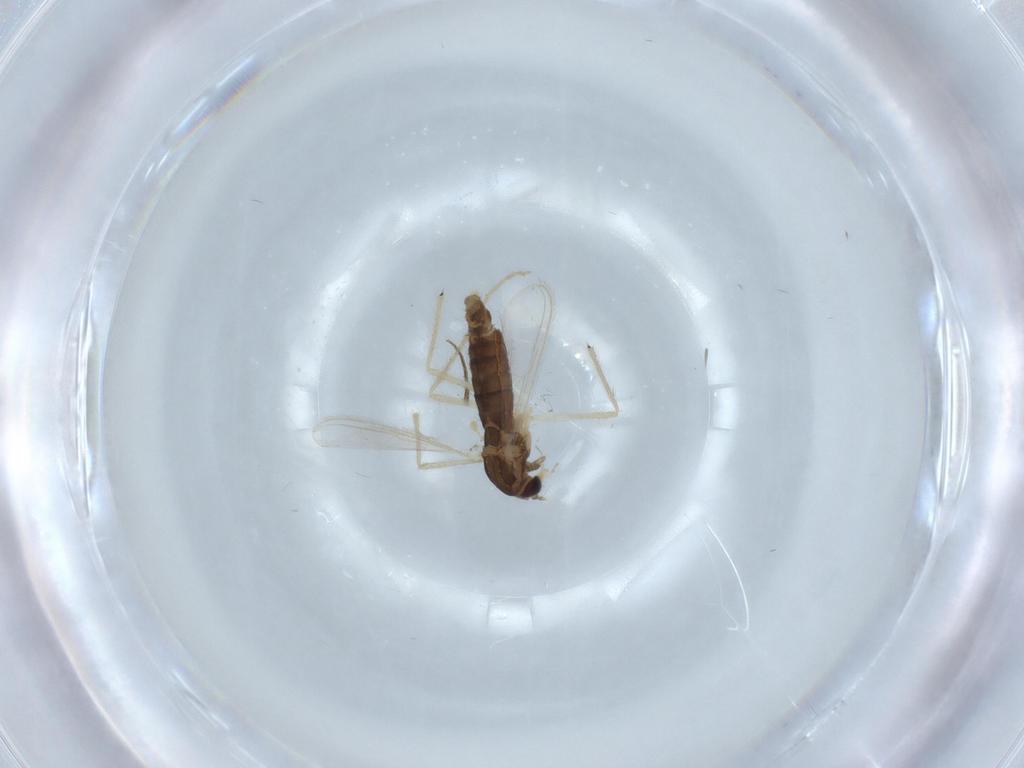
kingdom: Animalia
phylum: Arthropoda
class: Insecta
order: Diptera
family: Chironomidae
